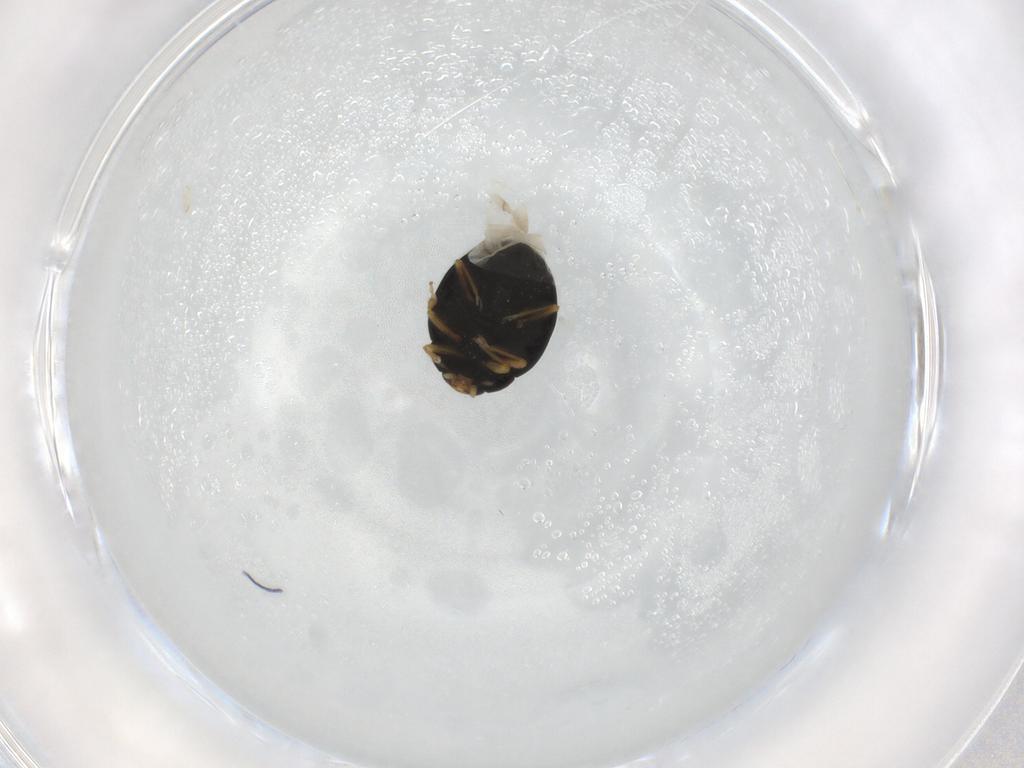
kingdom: Animalia
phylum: Arthropoda
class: Insecta
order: Coleoptera
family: Coccinellidae
